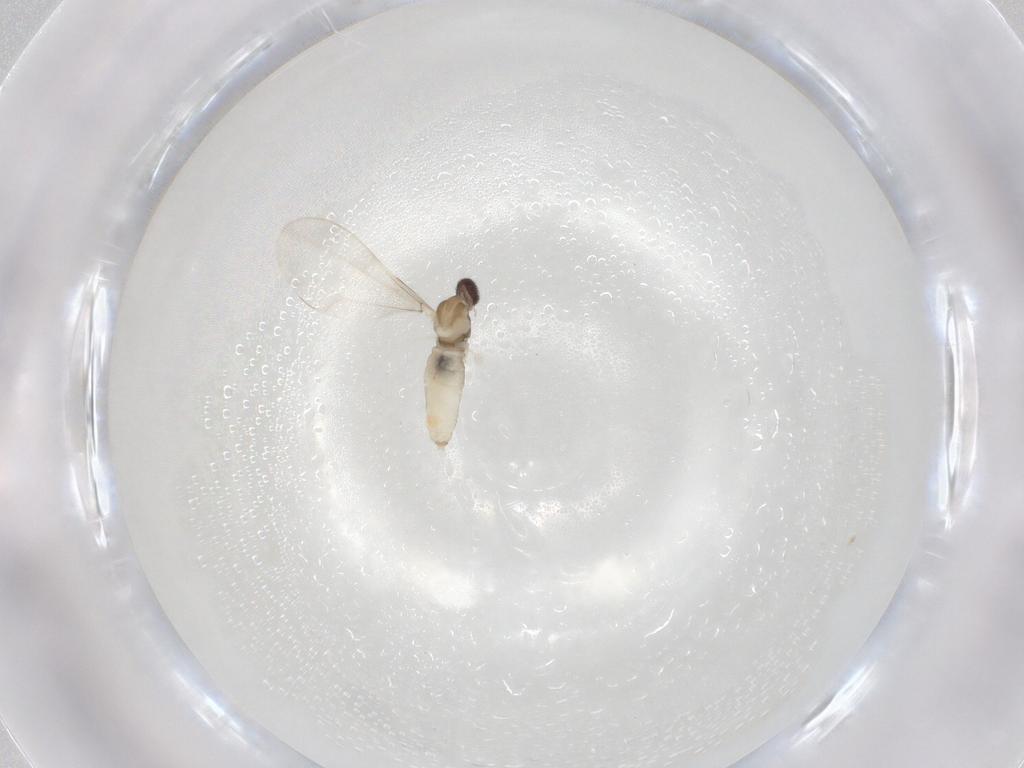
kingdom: Animalia
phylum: Arthropoda
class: Insecta
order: Diptera
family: Cecidomyiidae
